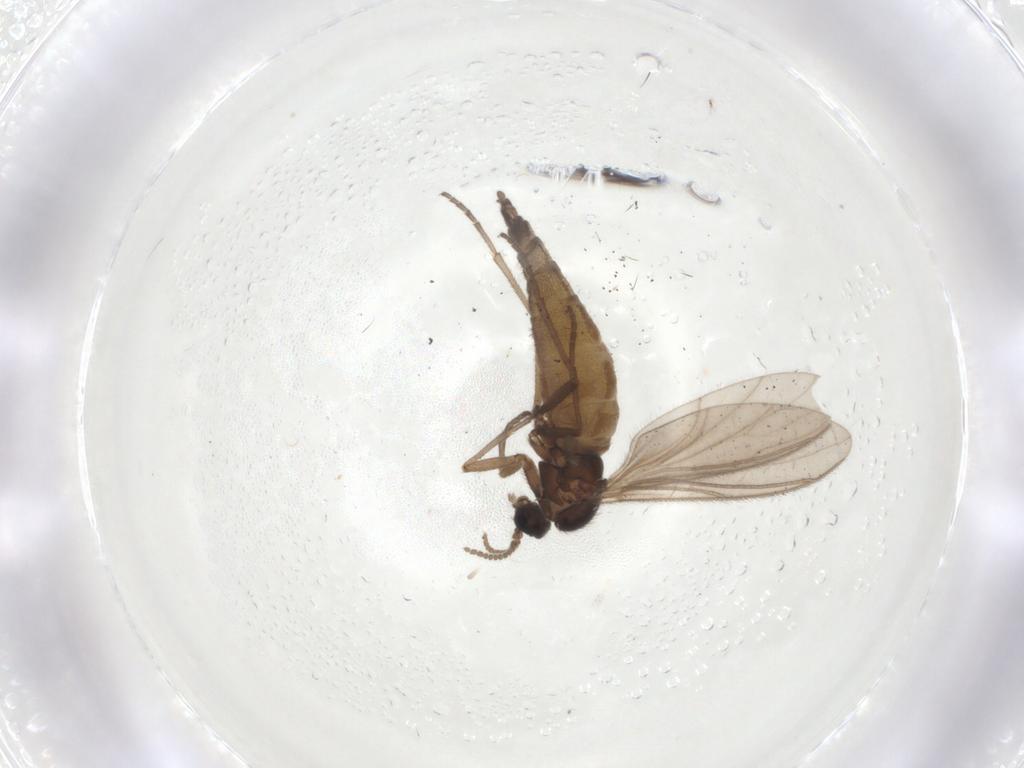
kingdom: Animalia
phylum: Arthropoda
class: Insecta
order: Diptera
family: Sciaridae
